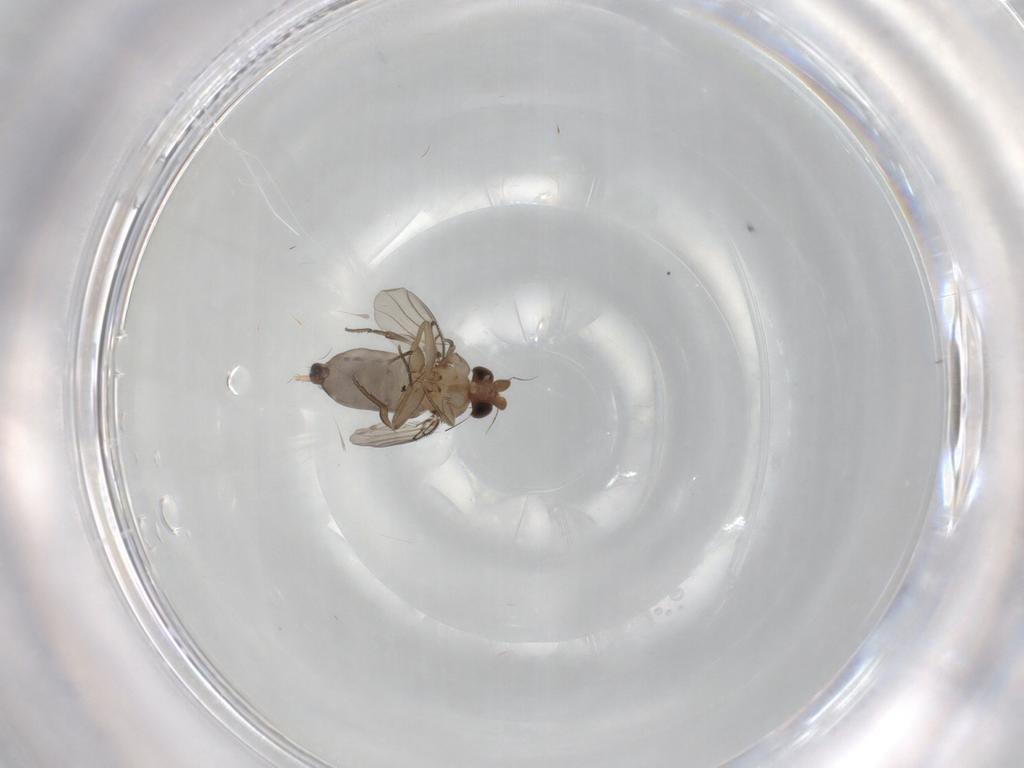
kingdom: Animalia
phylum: Arthropoda
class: Insecta
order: Diptera
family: Phoridae
